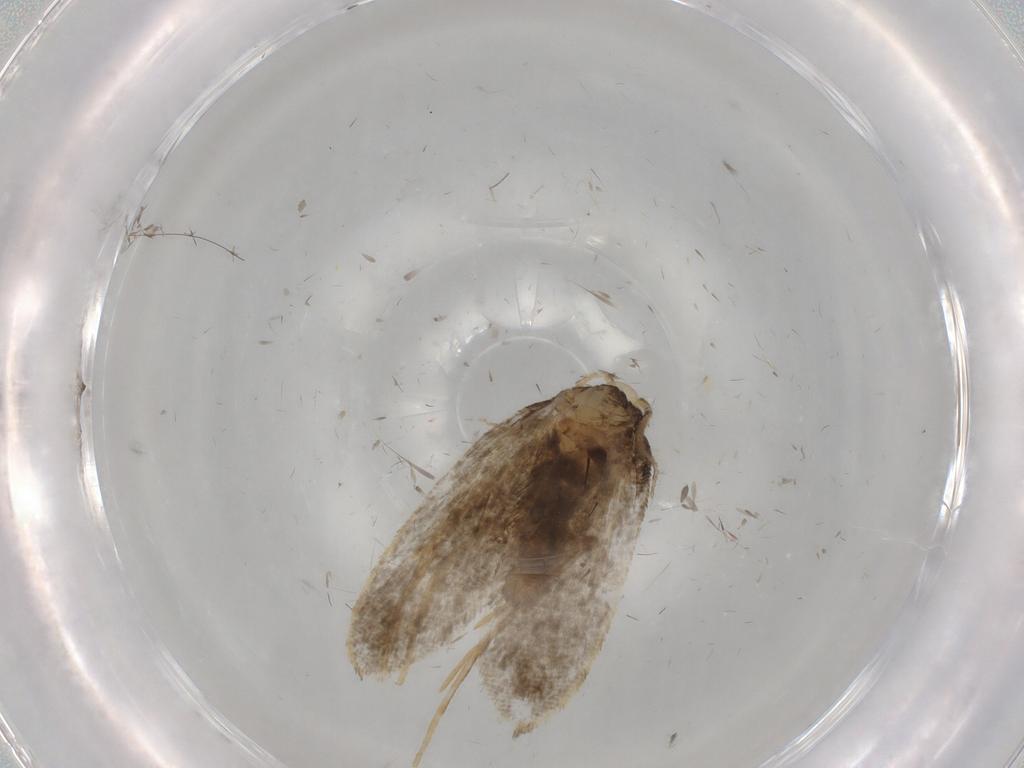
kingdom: Animalia
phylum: Arthropoda
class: Insecta
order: Lepidoptera
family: Psychidae
